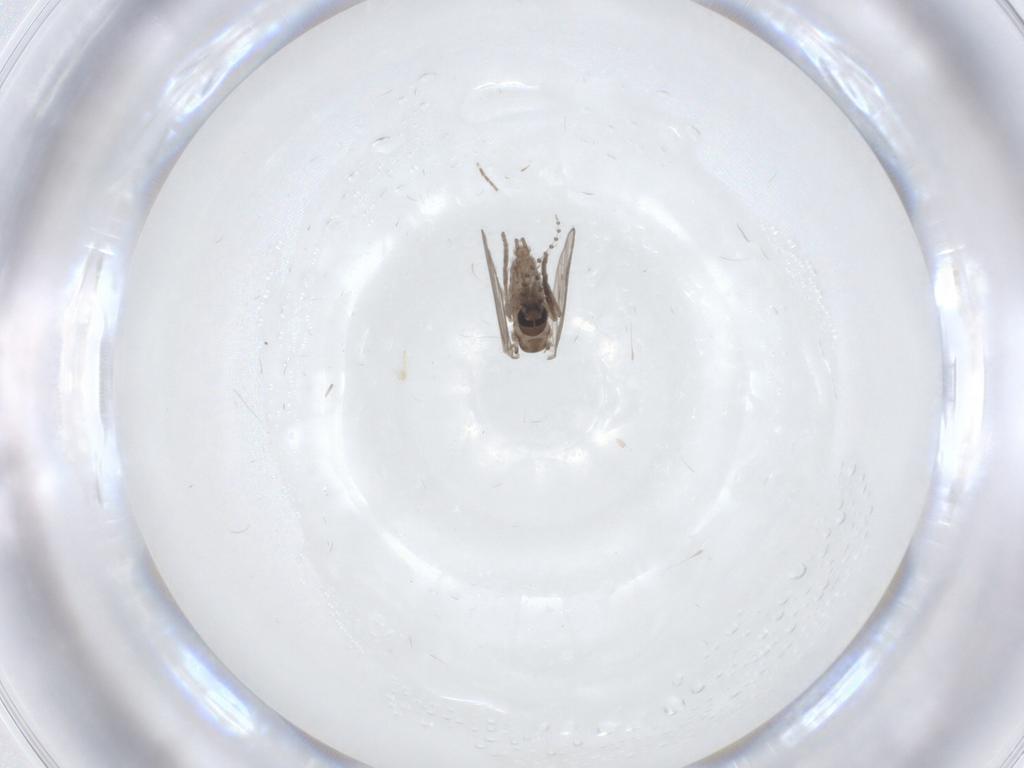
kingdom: Animalia
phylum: Arthropoda
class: Insecta
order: Diptera
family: Psychodidae
